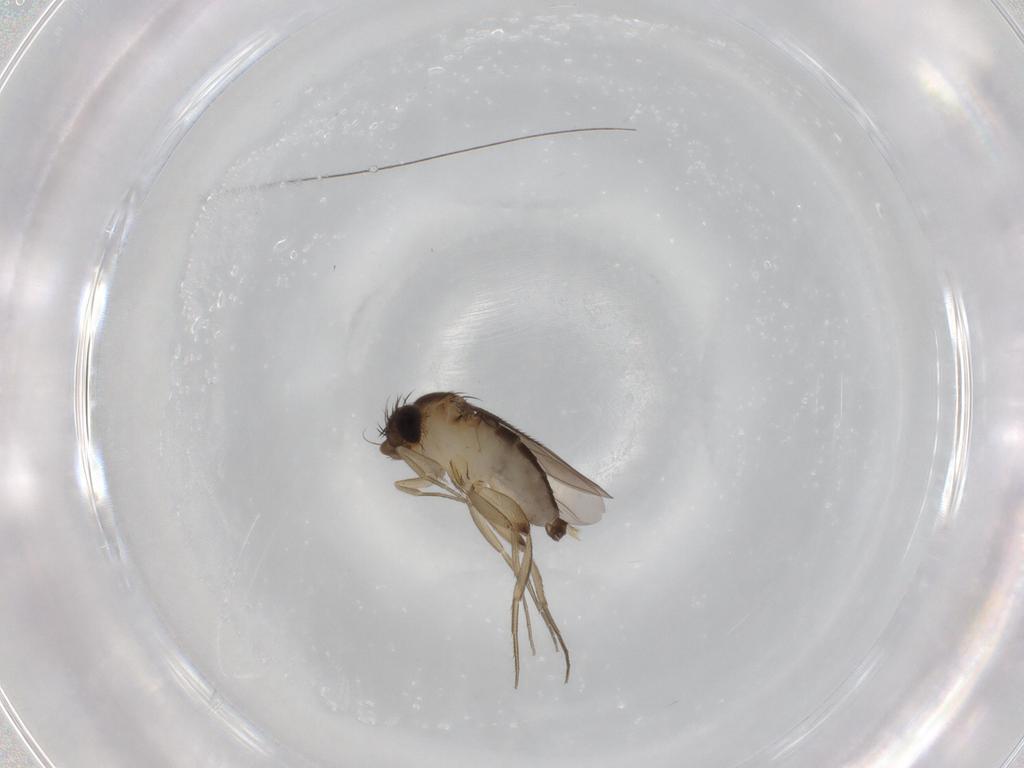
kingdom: Animalia
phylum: Arthropoda
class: Insecta
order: Diptera
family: Phoridae
